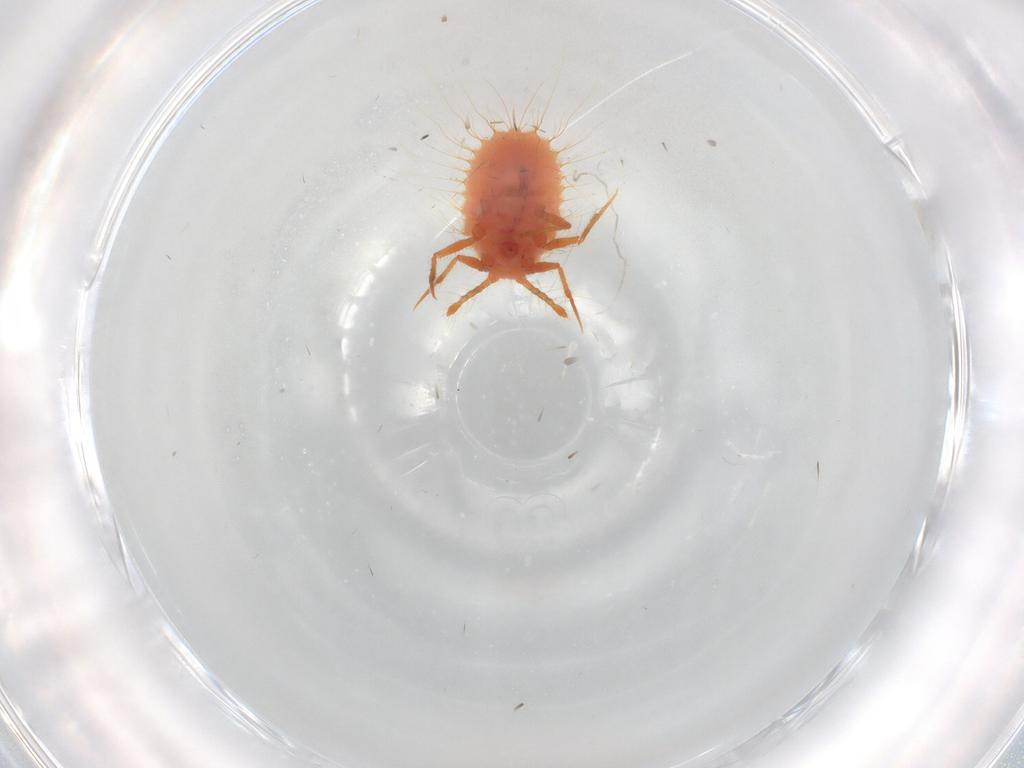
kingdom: Animalia
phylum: Arthropoda
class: Insecta
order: Hemiptera
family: Coccoidea_incertae_sedis
